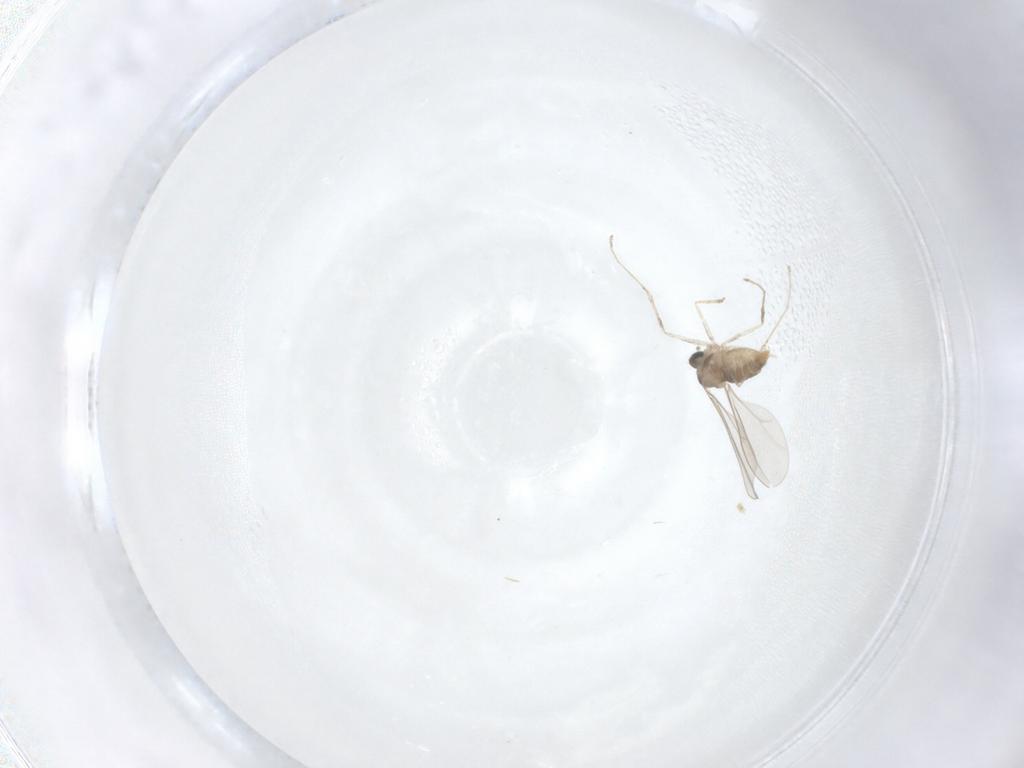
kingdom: Animalia
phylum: Arthropoda
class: Insecta
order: Diptera
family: Cecidomyiidae
